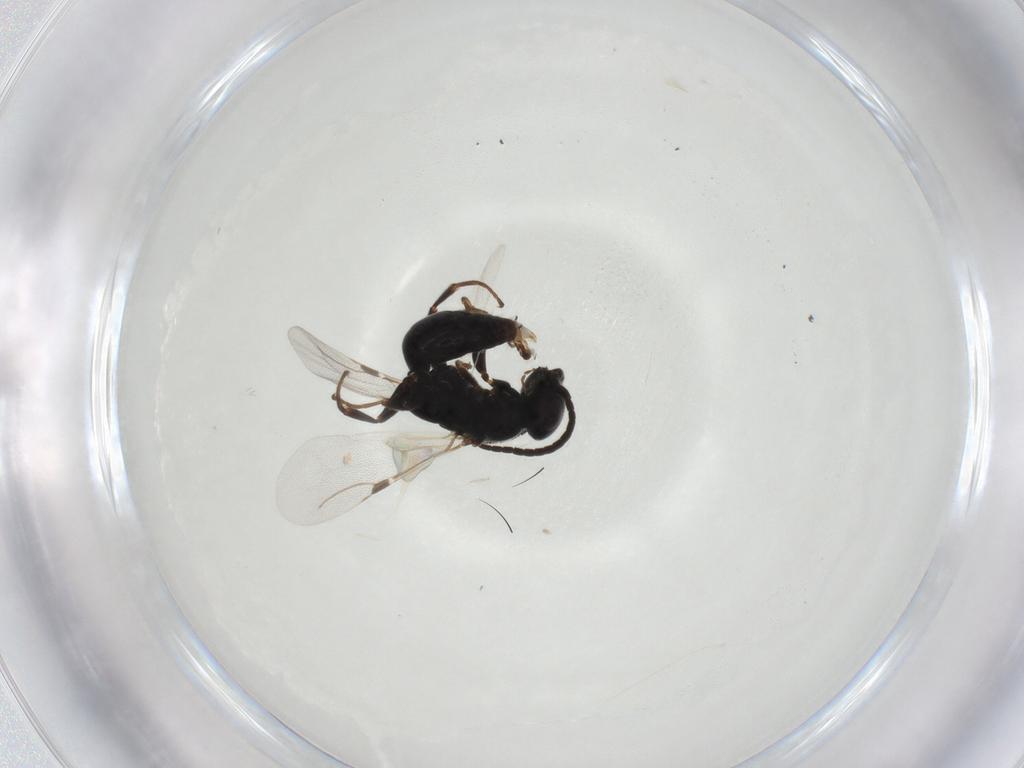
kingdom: Animalia
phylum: Arthropoda
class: Insecta
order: Hymenoptera
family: Bethylidae
